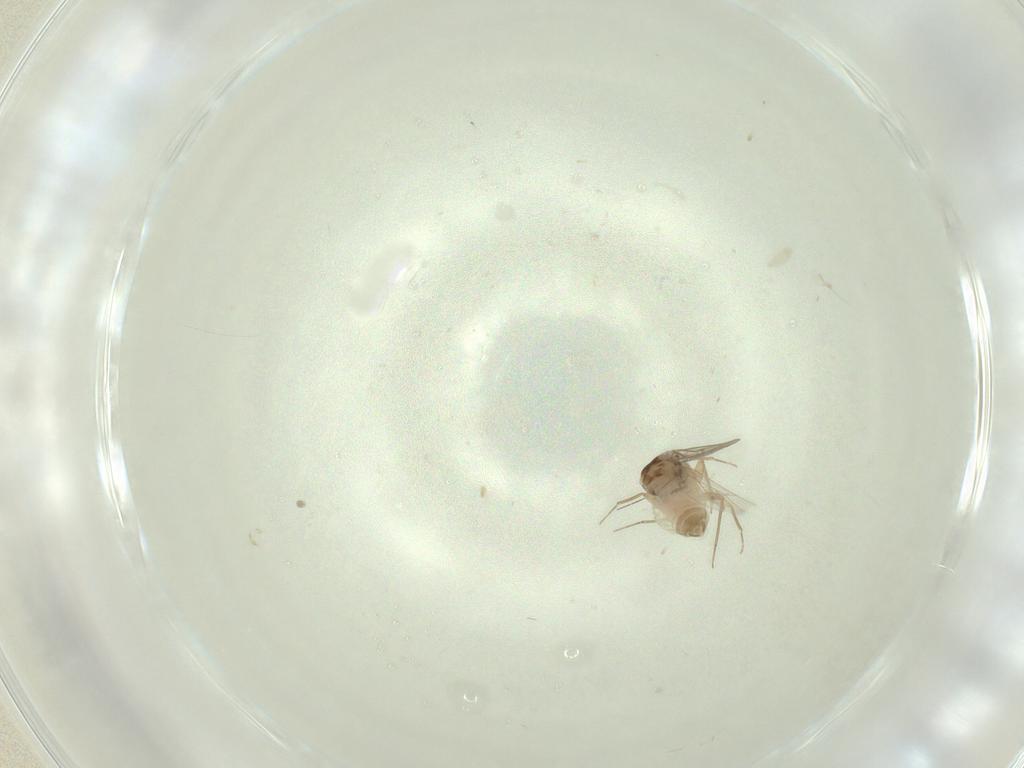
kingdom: Animalia
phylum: Arthropoda
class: Insecta
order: Psocodea
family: Lepidopsocidae
